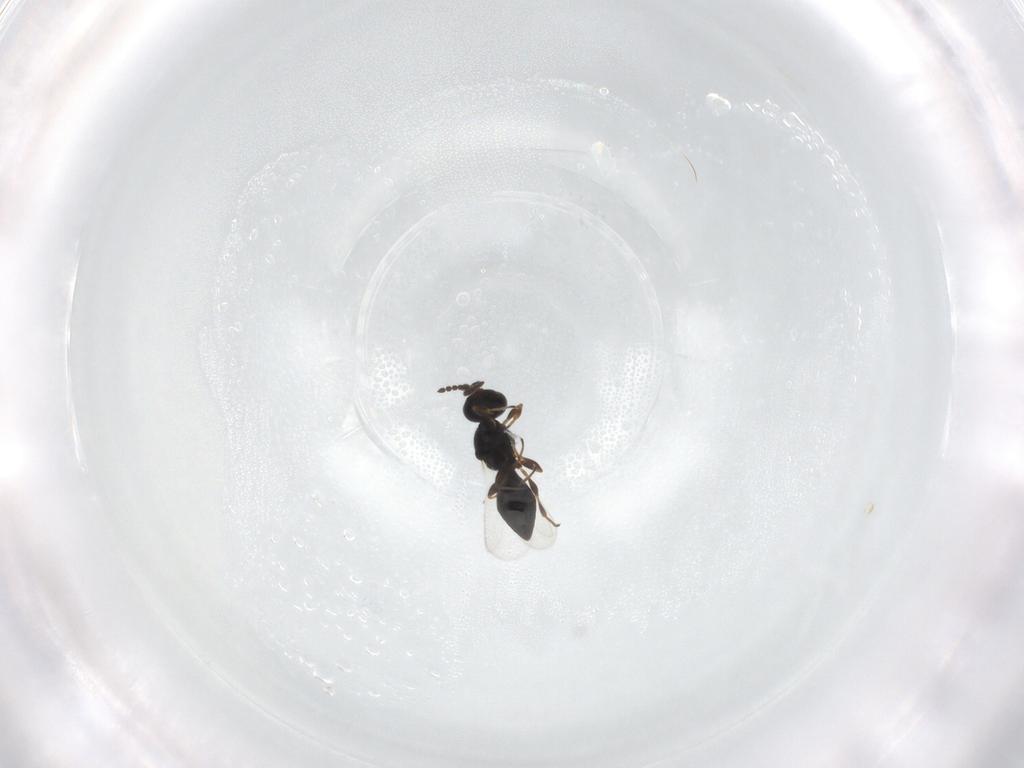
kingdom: Animalia
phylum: Arthropoda
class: Insecta
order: Hymenoptera
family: Platygastridae
